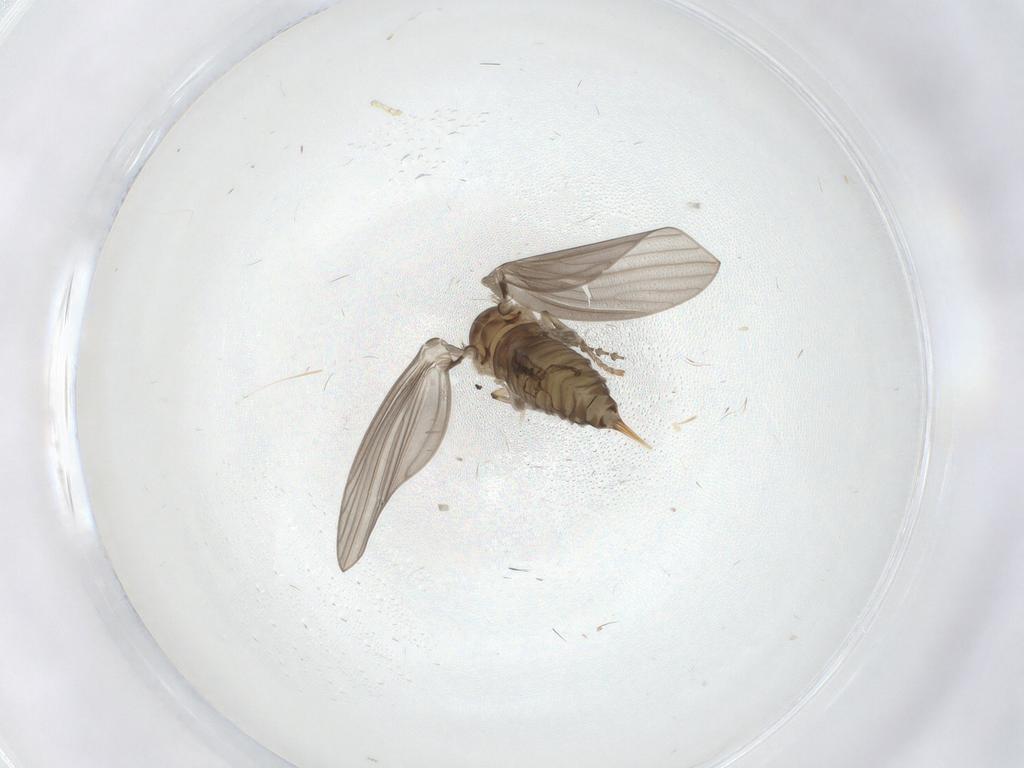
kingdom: Animalia
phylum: Arthropoda
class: Insecta
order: Diptera
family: Psychodidae
